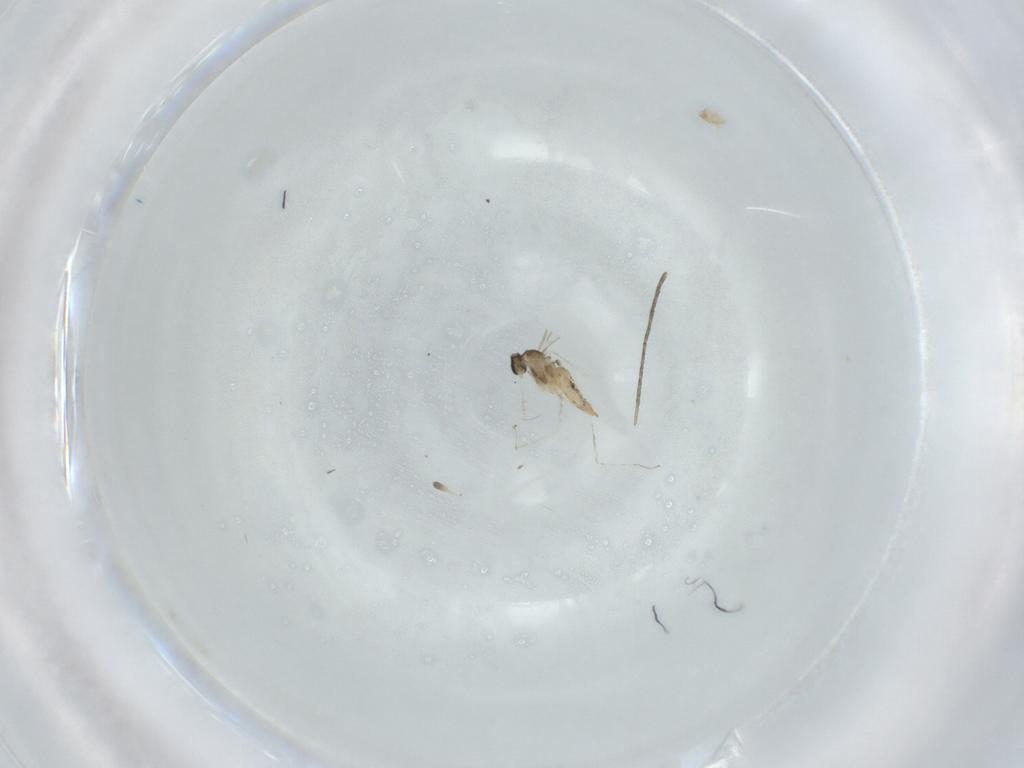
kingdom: Animalia
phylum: Arthropoda
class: Insecta
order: Diptera
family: Cecidomyiidae
